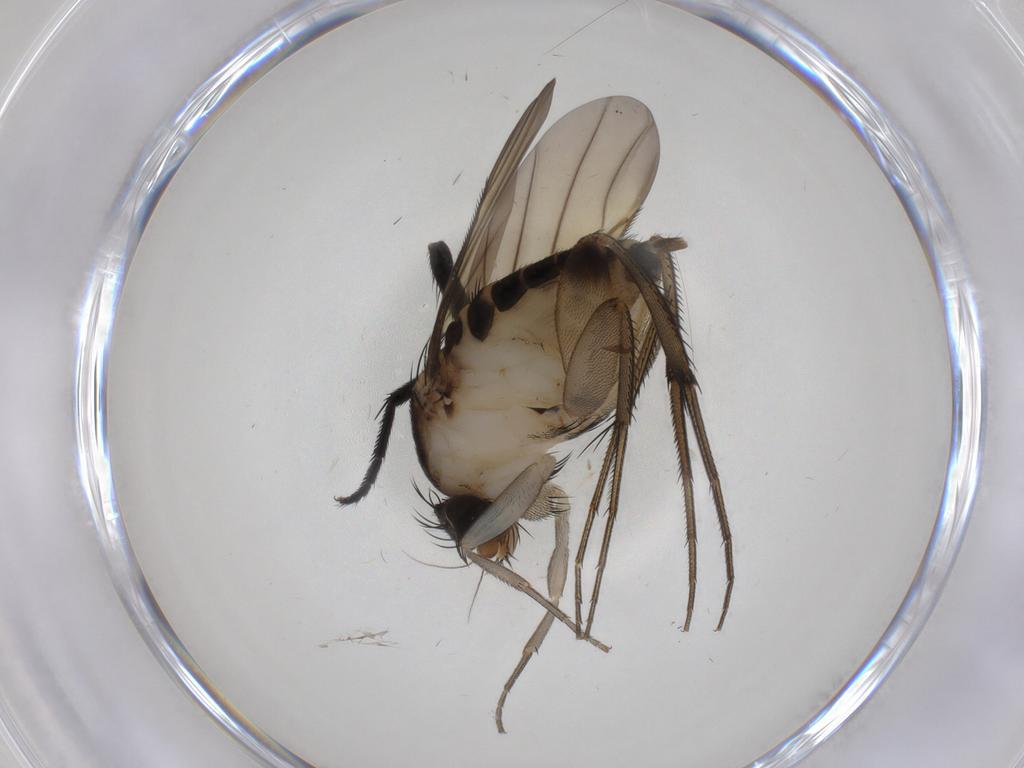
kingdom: Animalia
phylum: Arthropoda
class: Insecta
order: Diptera
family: Phoridae
